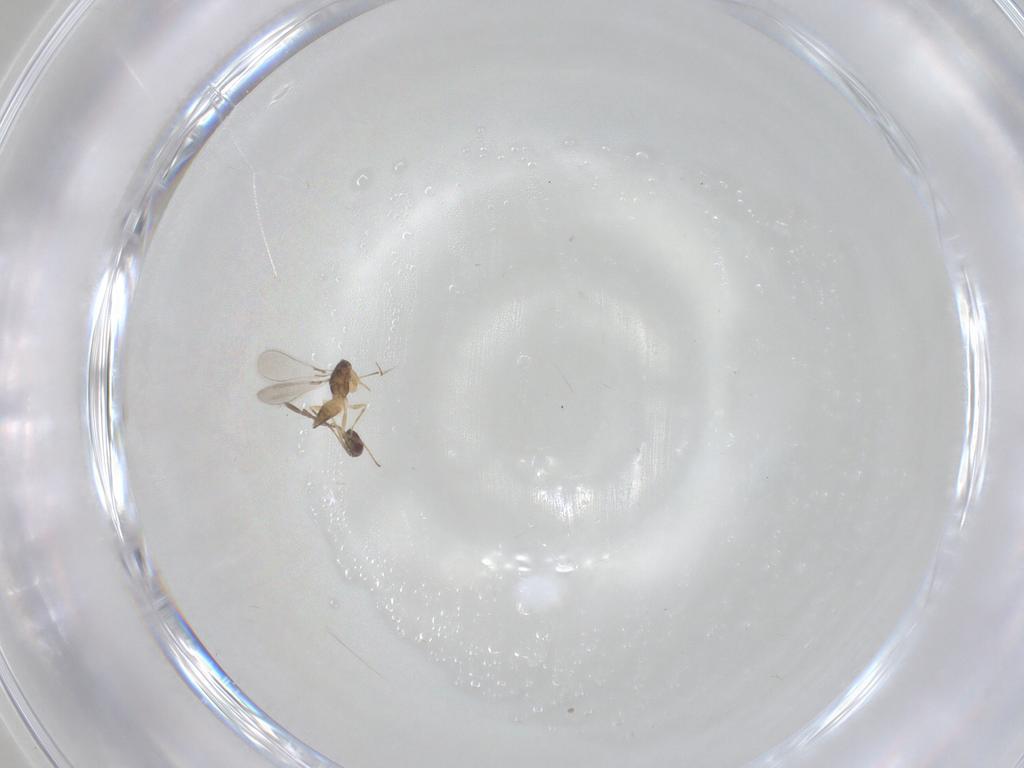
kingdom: Animalia
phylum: Arthropoda
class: Insecta
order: Hymenoptera
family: Mymaridae
